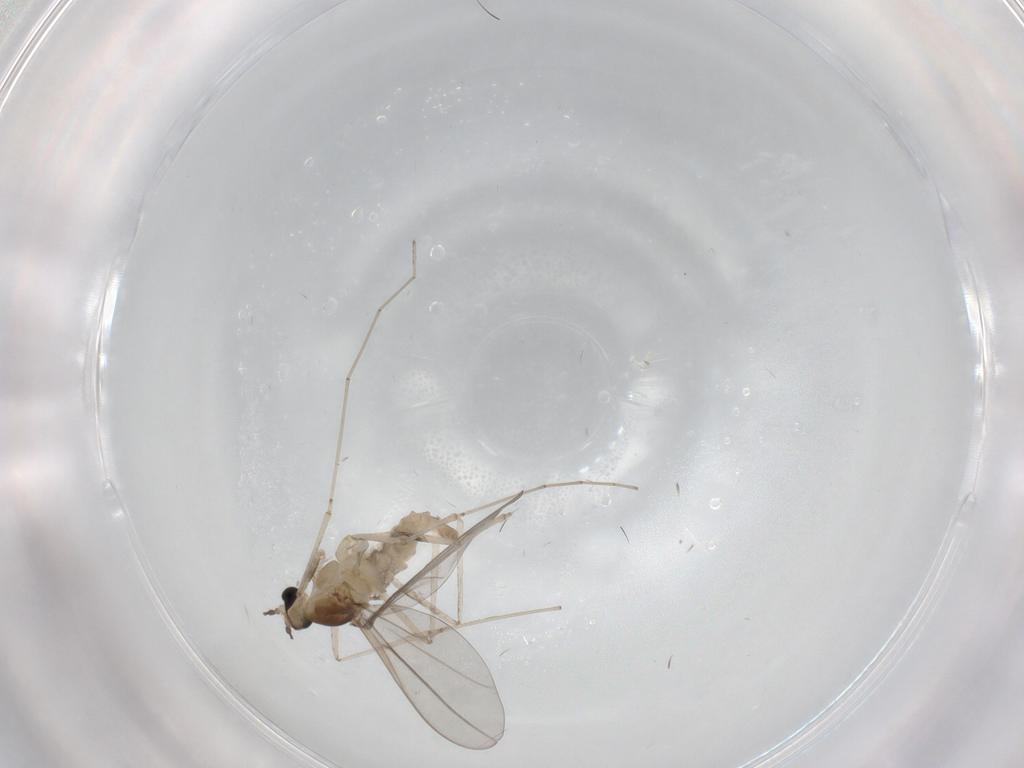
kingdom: Animalia
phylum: Arthropoda
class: Insecta
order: Diptera
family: Cecidomyiidae
